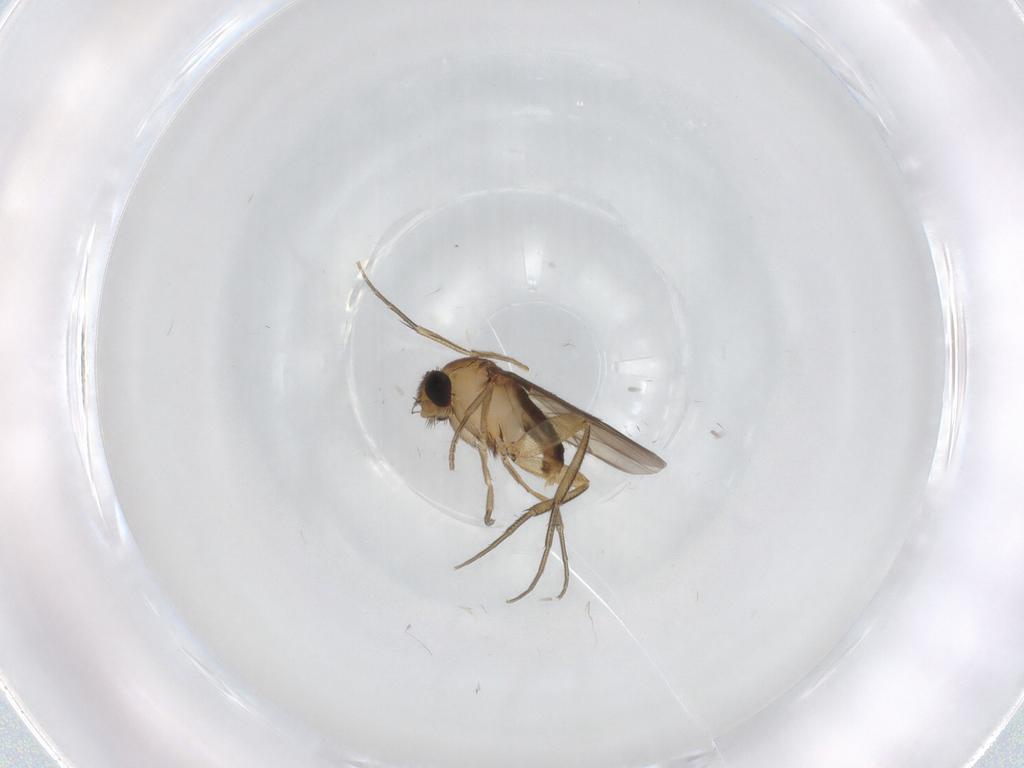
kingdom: Animalia
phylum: Arthropoda
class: Insecta
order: Diptera
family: Phoridae
